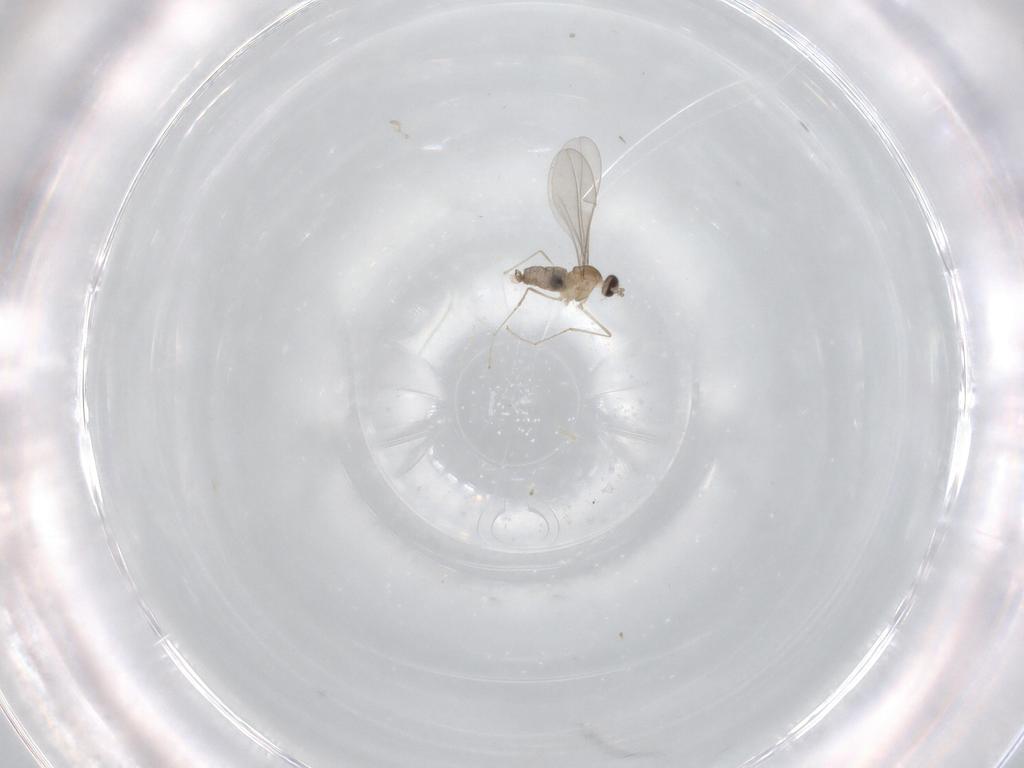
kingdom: Animalia
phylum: Arthropoda
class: Insecta
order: Diptera
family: Cecidomyiidae
